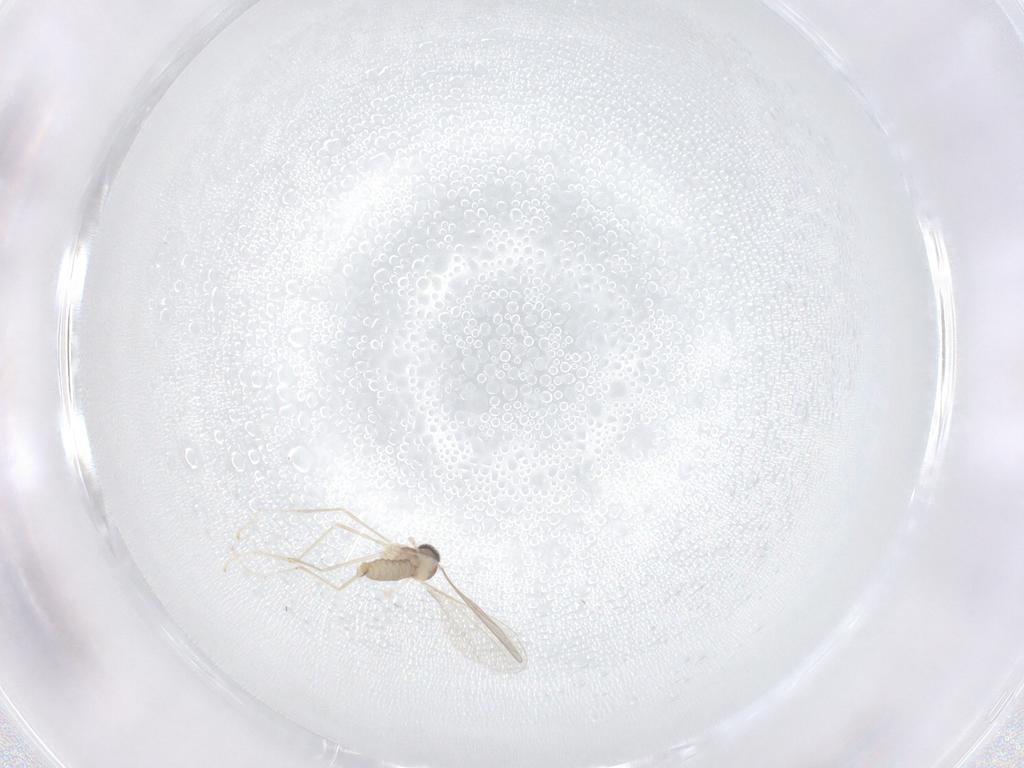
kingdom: Animalia
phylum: Arthropoda
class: Insecta
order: Diptera
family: Cecidomyiidae
